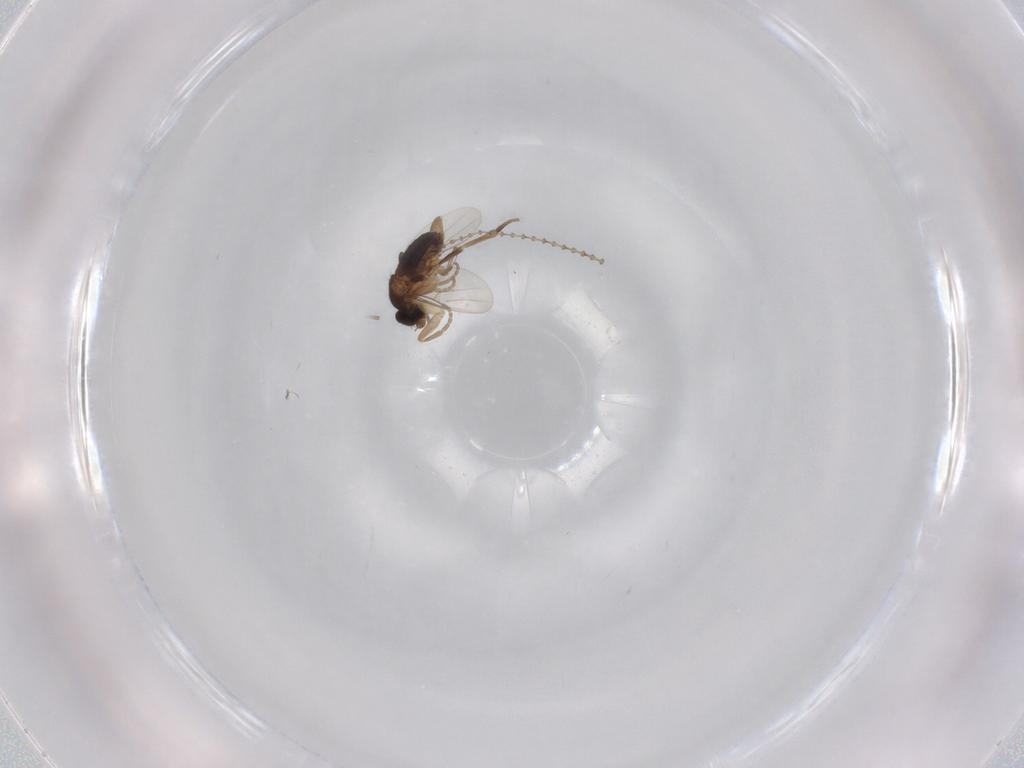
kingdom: Animalia
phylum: Arthropoda
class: Insecta
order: Diptera
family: Phoridae
